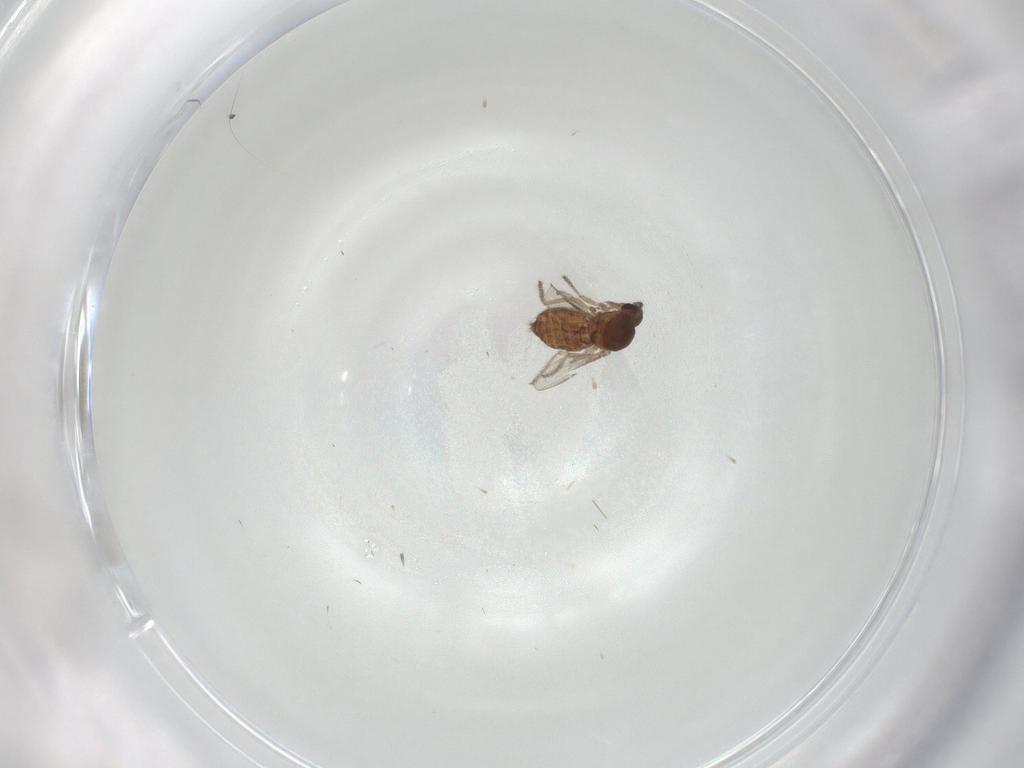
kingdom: Animalia
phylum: Arthropoda
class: Insecta
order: Diptera
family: Ceratopogonidae
